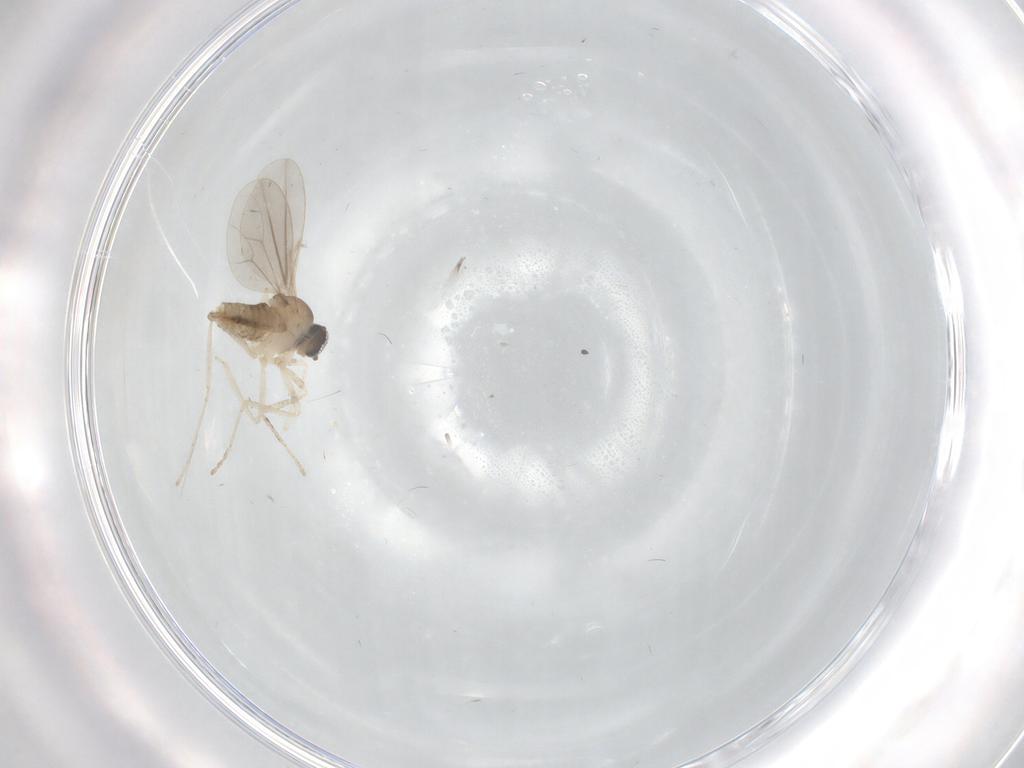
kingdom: Animalia
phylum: Arthropoda
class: Insecta
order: Diptera
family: Cecidomyiidae
